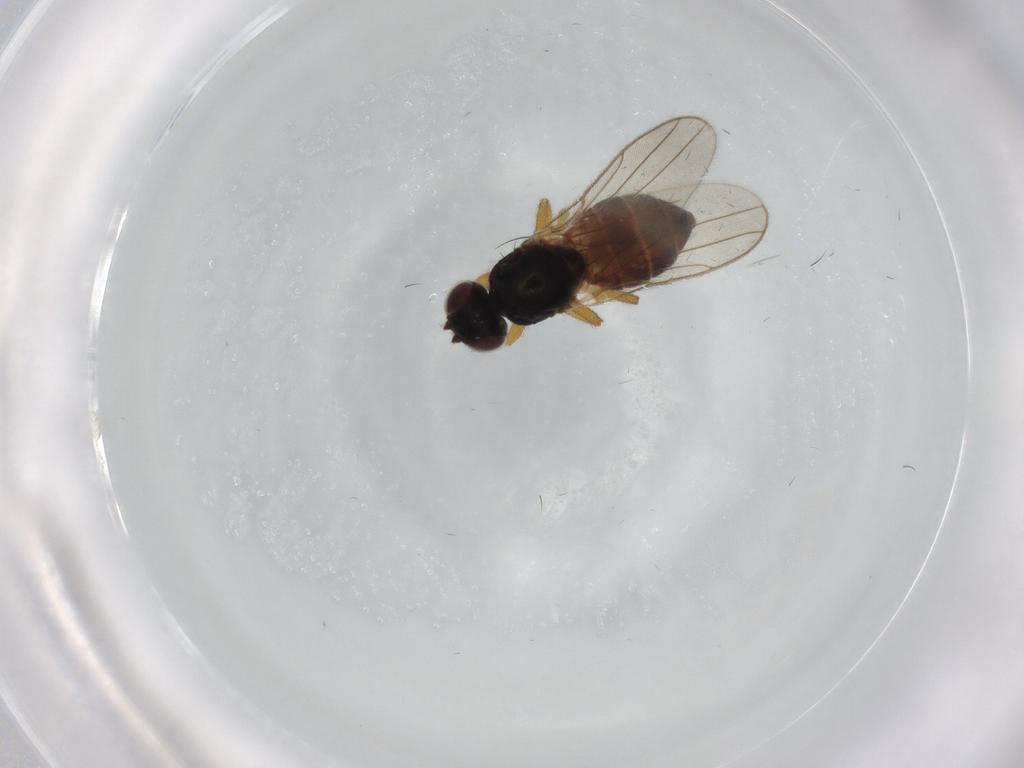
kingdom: Animalia
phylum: Arthropoda
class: Insecta
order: Diptera
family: Chloropidae
